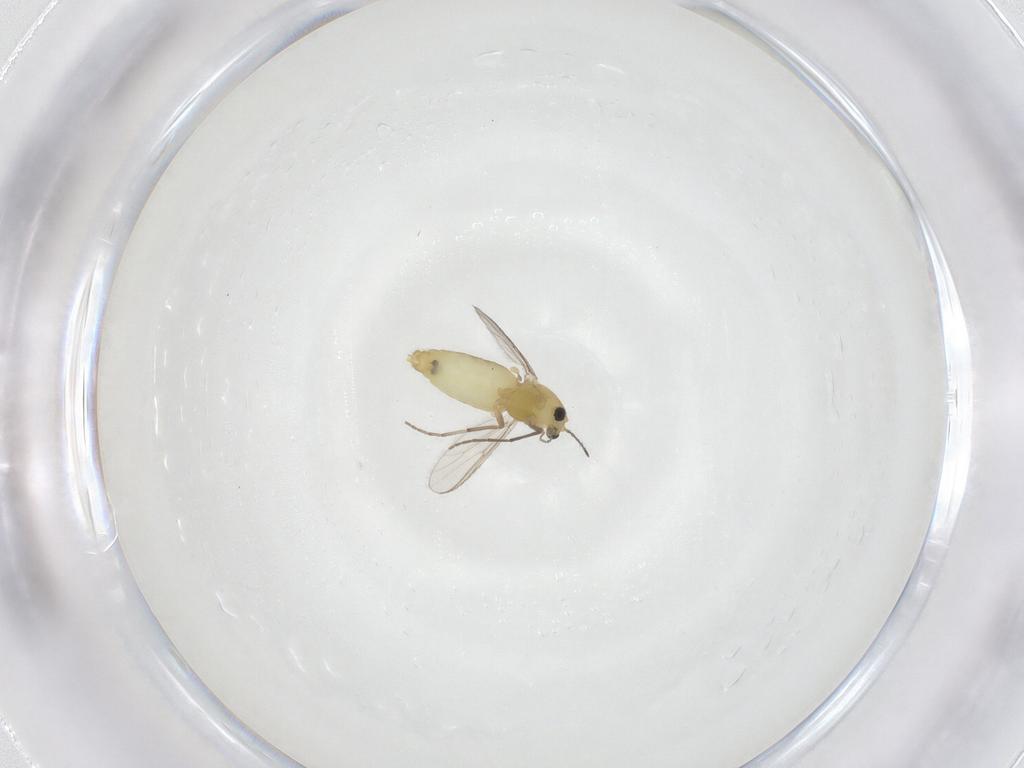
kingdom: Animalia
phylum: Arthropoda
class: Insecta
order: Diptera
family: Chironomidae
